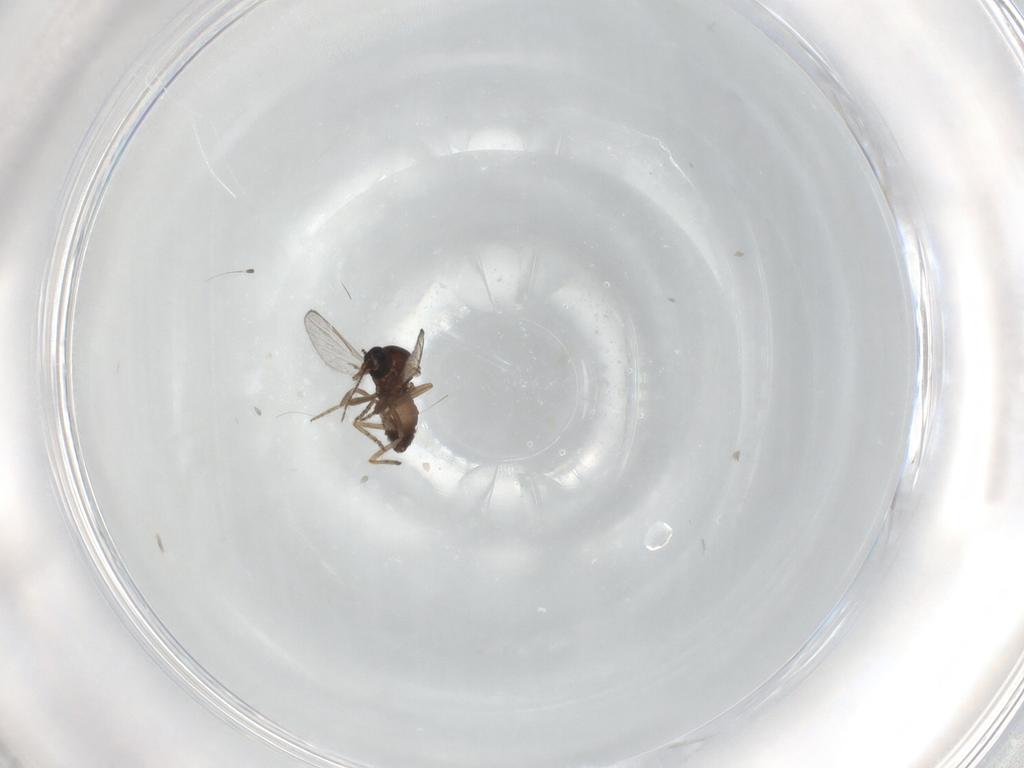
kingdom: Animalia
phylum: Arthropoda
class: Insecta
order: Diptera
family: Ceratopogonidae
